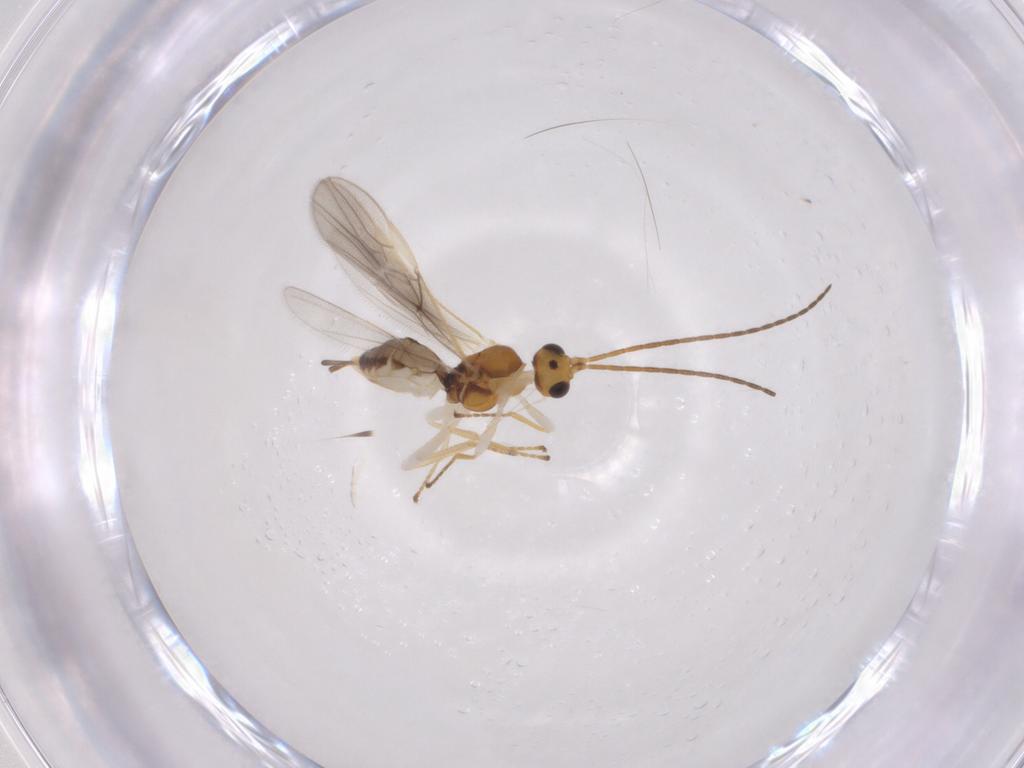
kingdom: Animalia
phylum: Arthropoda
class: Insecta
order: Hymenoptera
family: Braconidae
